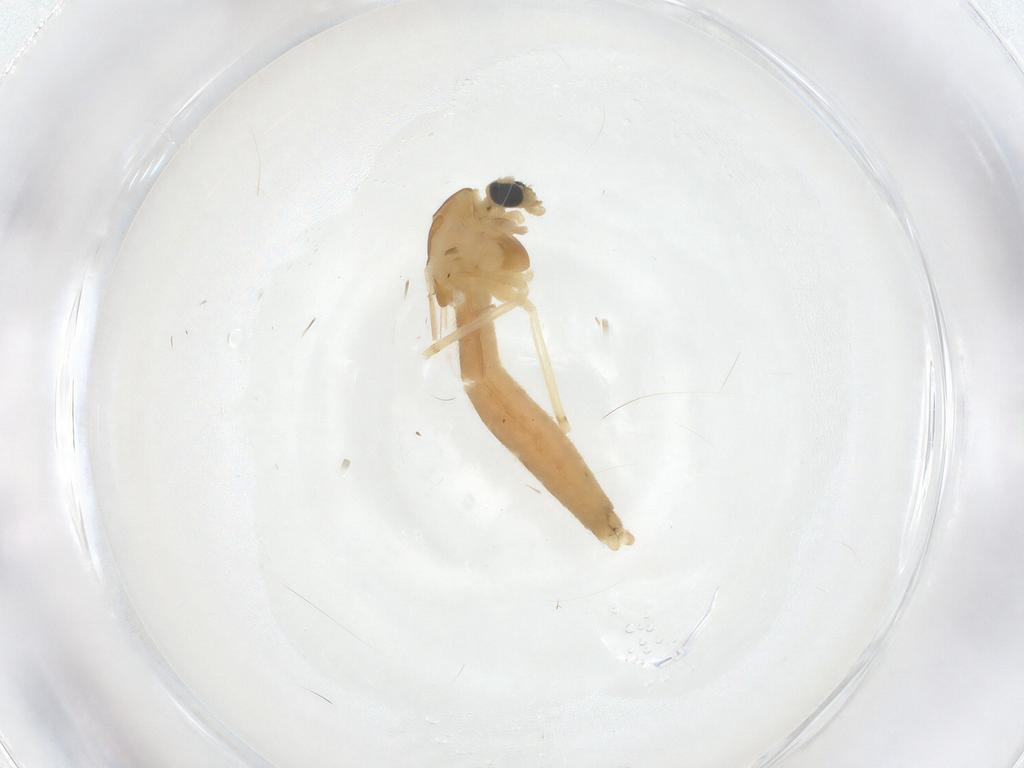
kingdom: Animalia
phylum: Arthropoda
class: Insecta
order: Diptera
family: Chironomidae
